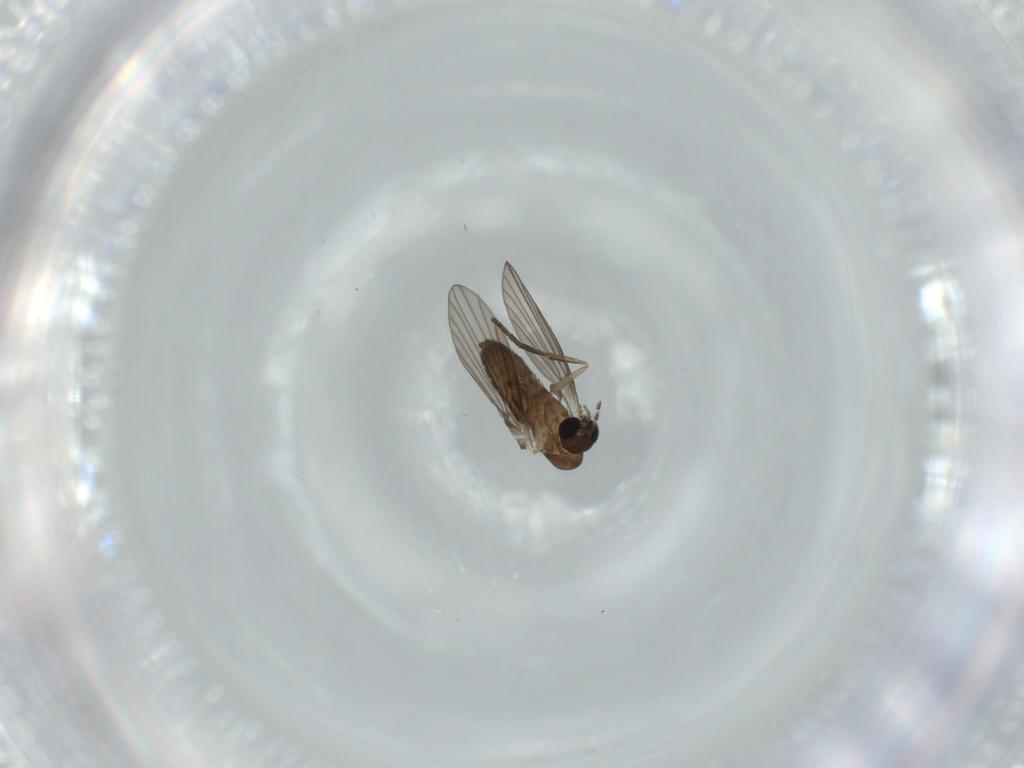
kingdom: Animalia
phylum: Arthropoda
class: Insecta
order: Diptera
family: Psychodidae
